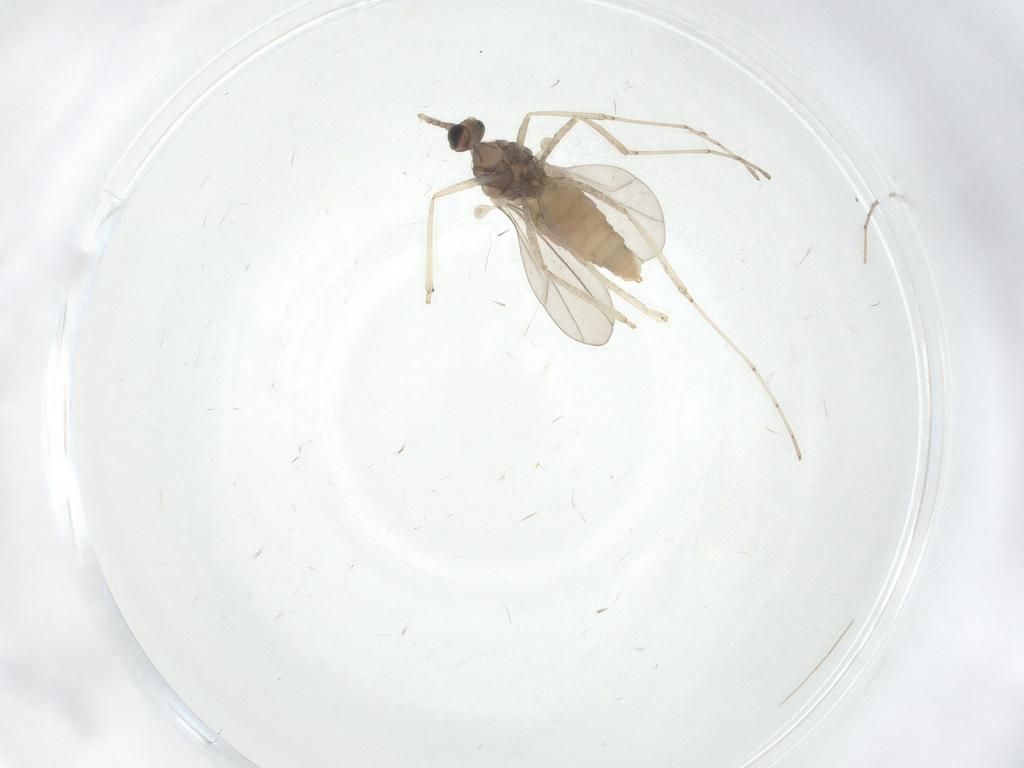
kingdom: Animalia
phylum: Arthropoda
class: Insecta
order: Diptera
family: Cecidomyiidae
